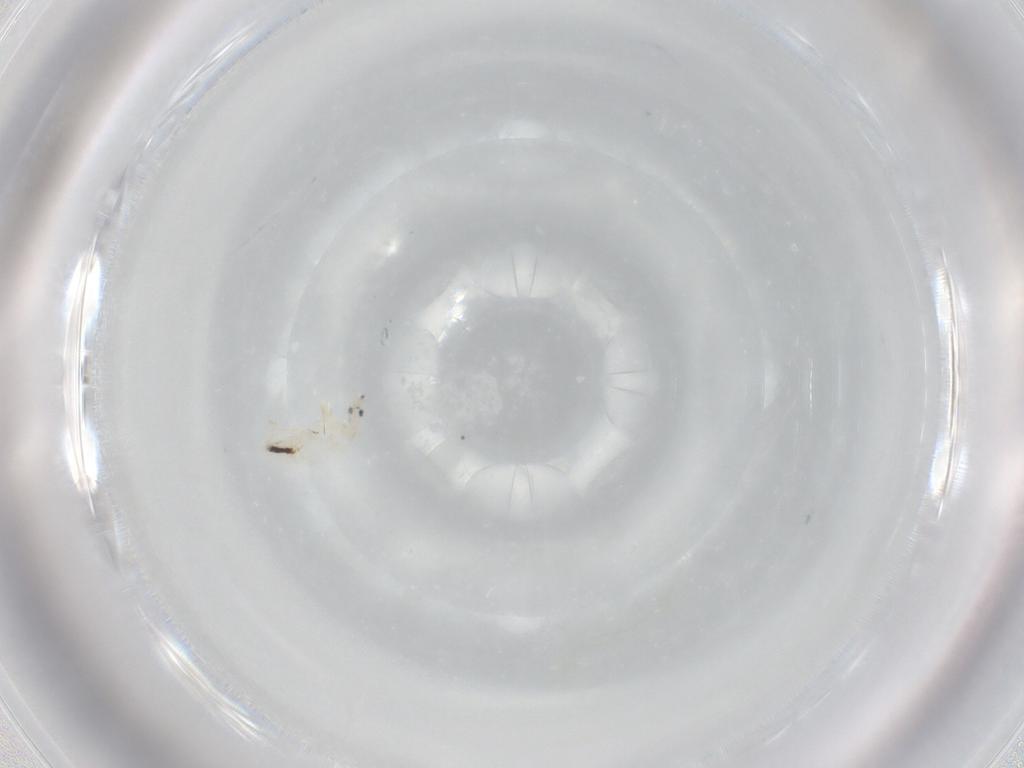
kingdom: Animalia
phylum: Arthropoda
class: Collembola
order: Entomobryomorpha
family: Entomobryidae
